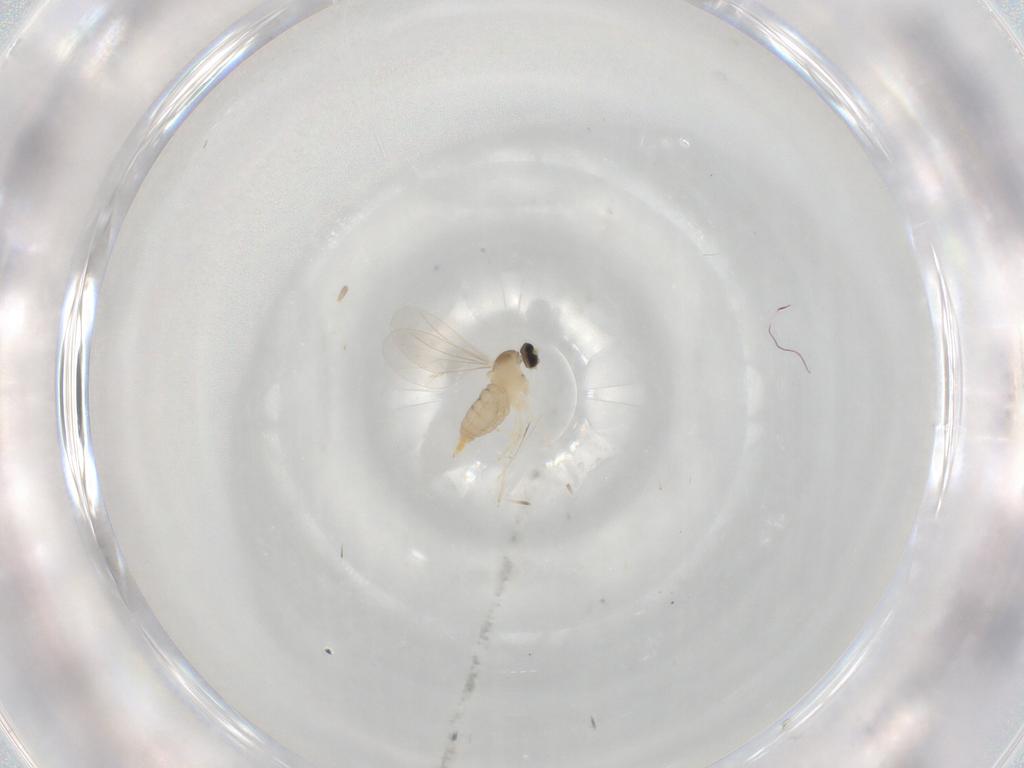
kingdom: Animalia
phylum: Arthropoda
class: Insecta
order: Diptera
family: Cecidomyiidae
